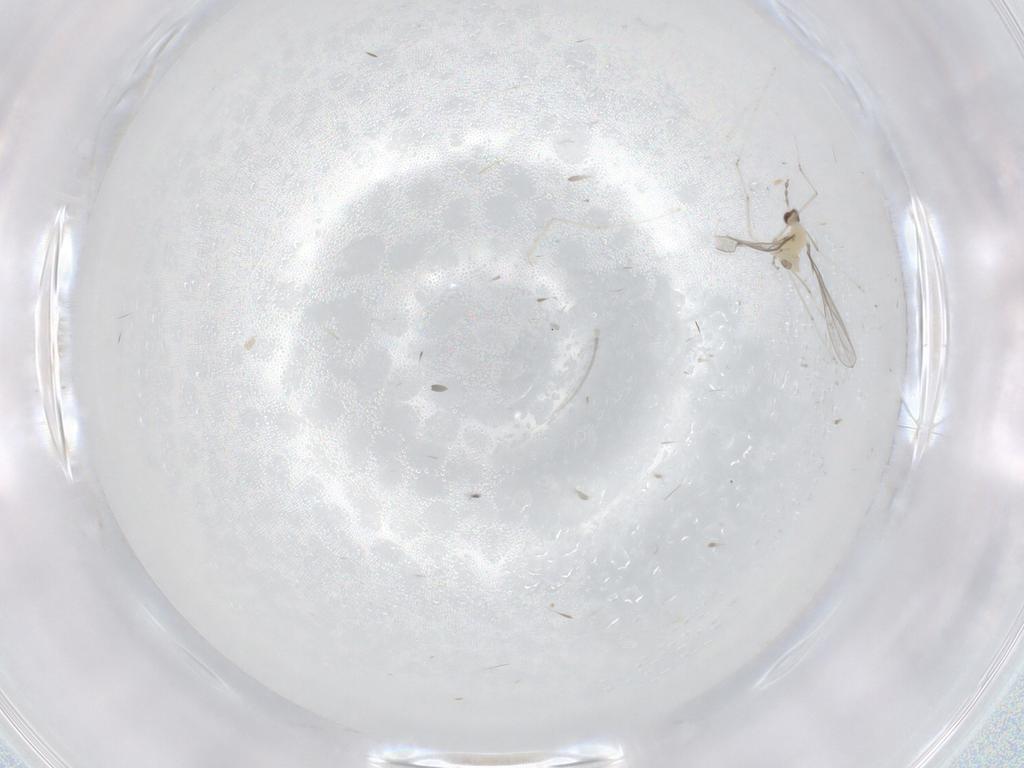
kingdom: Animalia
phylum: Arthropoda
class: Insecta
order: Diptera
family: Cecidomyiidae
